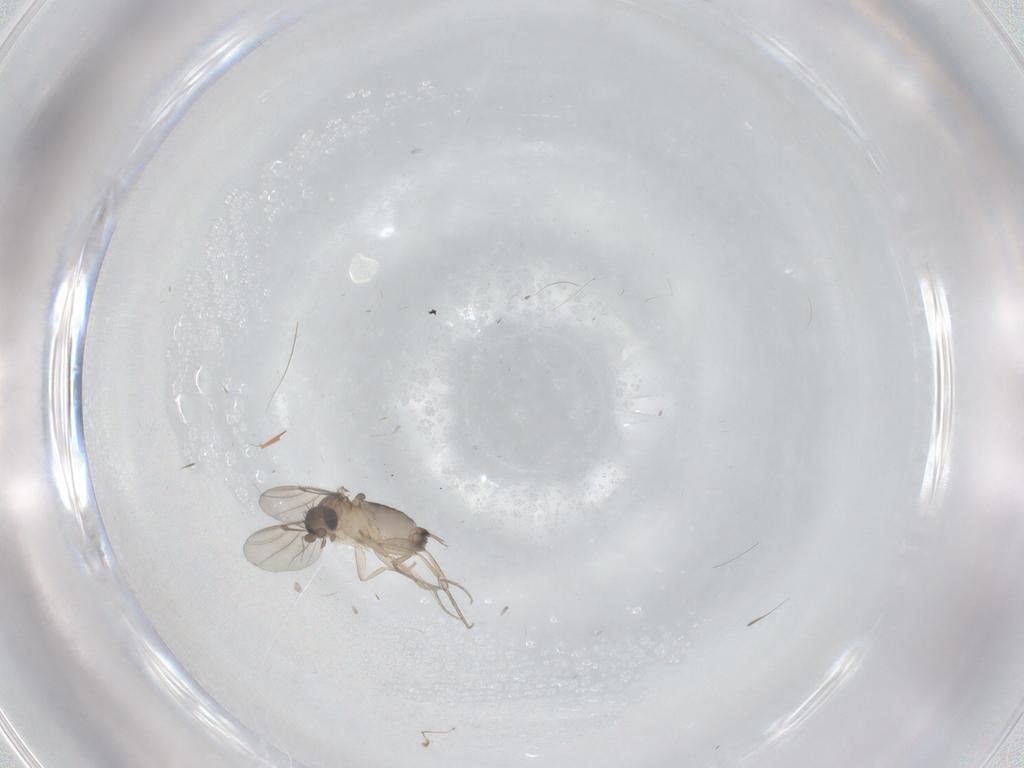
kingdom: Animalia
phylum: Arthropoda
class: Insecta
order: Diptera
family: Phoridae
